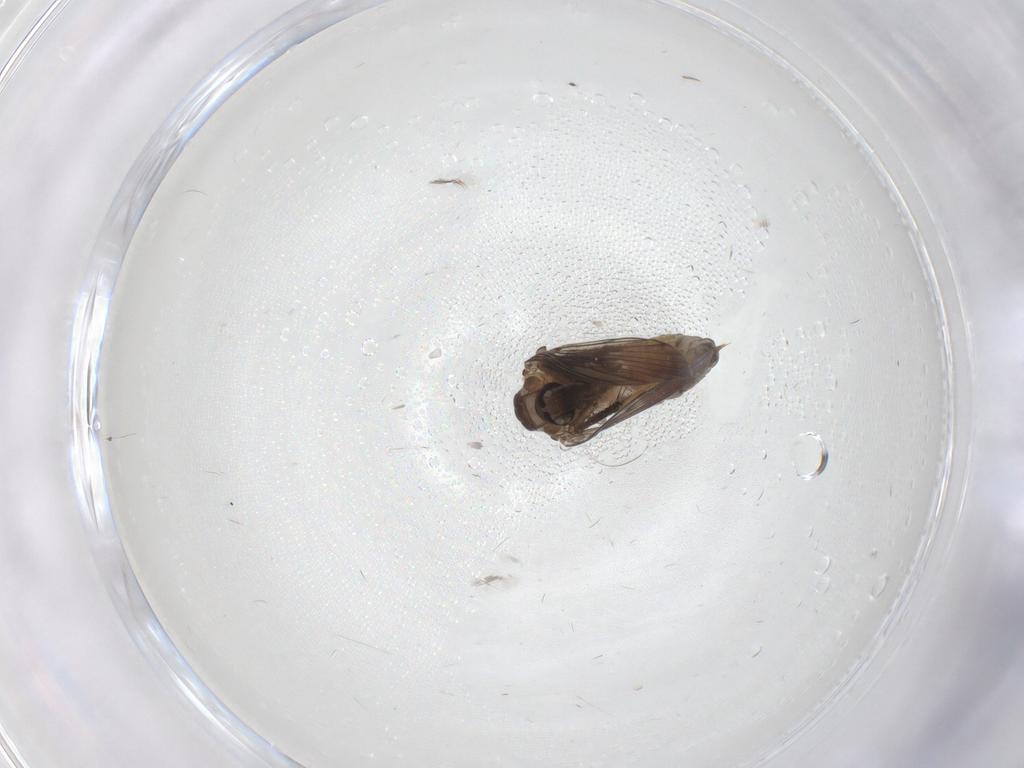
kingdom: Animalia
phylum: Arthropoda
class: Insecta
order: Diptera
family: Psychodidae
